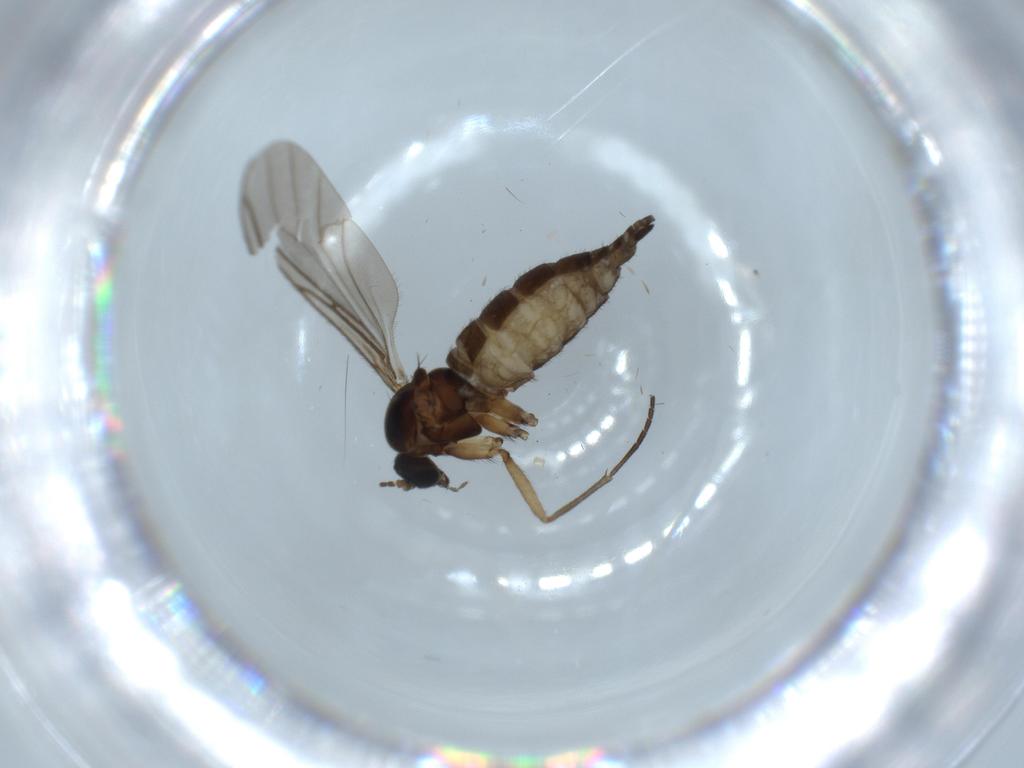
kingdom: Animalia
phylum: Arthropoda
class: Insecta
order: Diptera
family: Sciaridae
